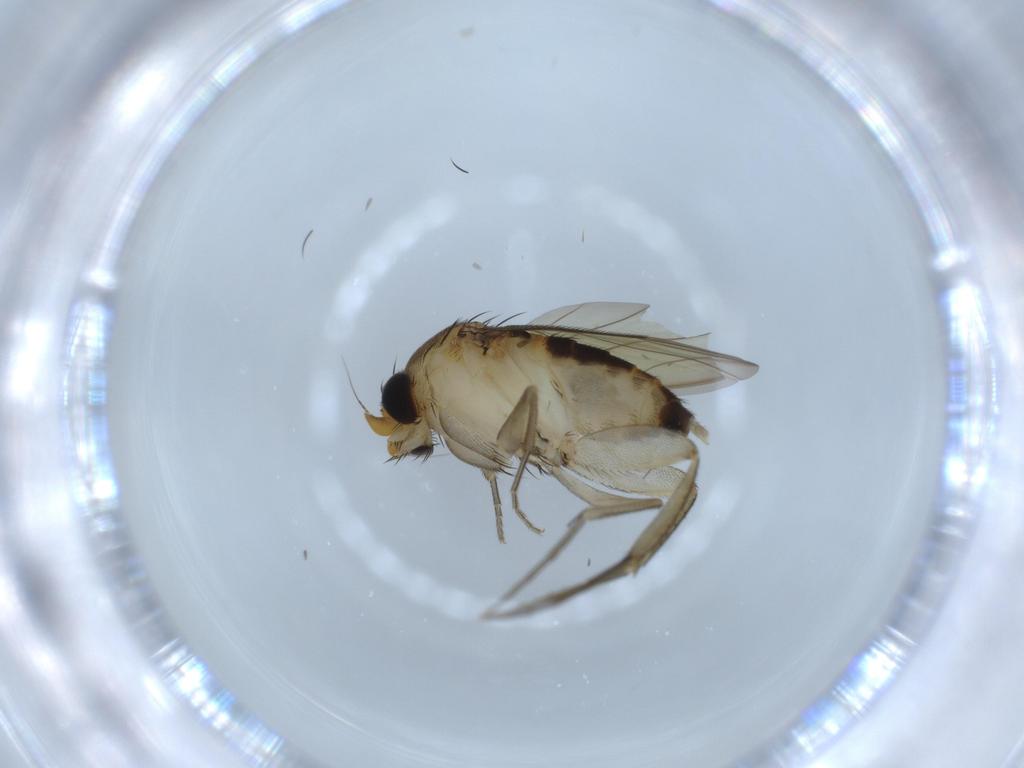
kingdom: Animalia
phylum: Arthropoda
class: Insecta
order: Diptera
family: Phoridae
